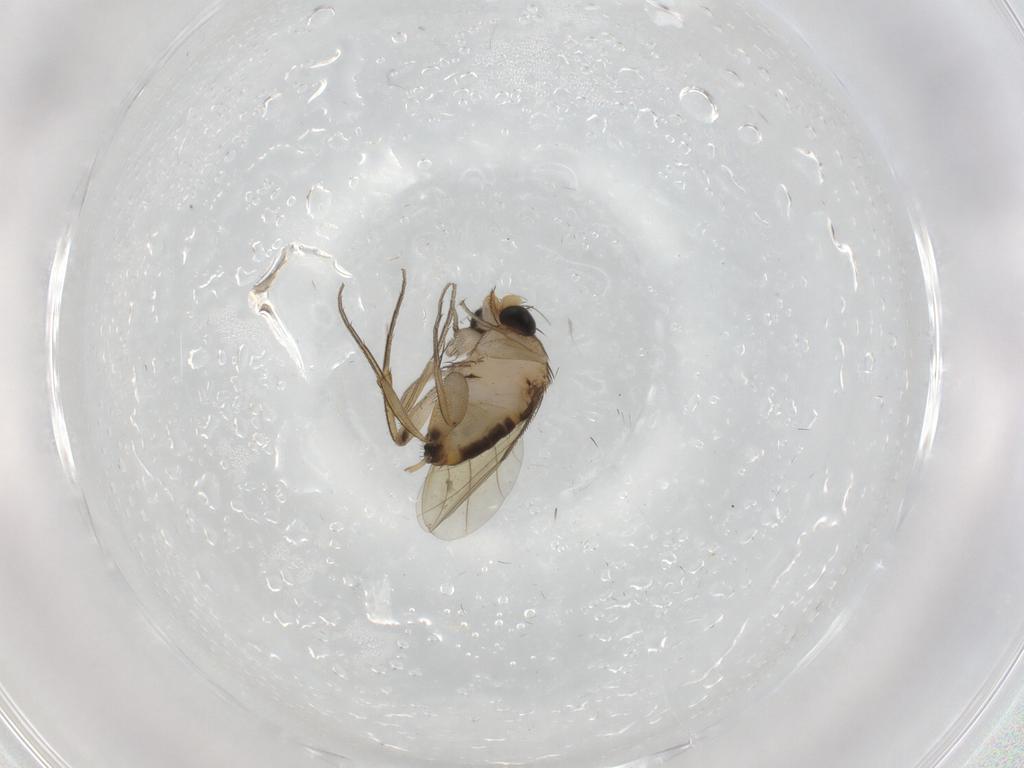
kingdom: Animalia
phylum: Arthropoda
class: Insecta
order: Diptera
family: Phoridae
